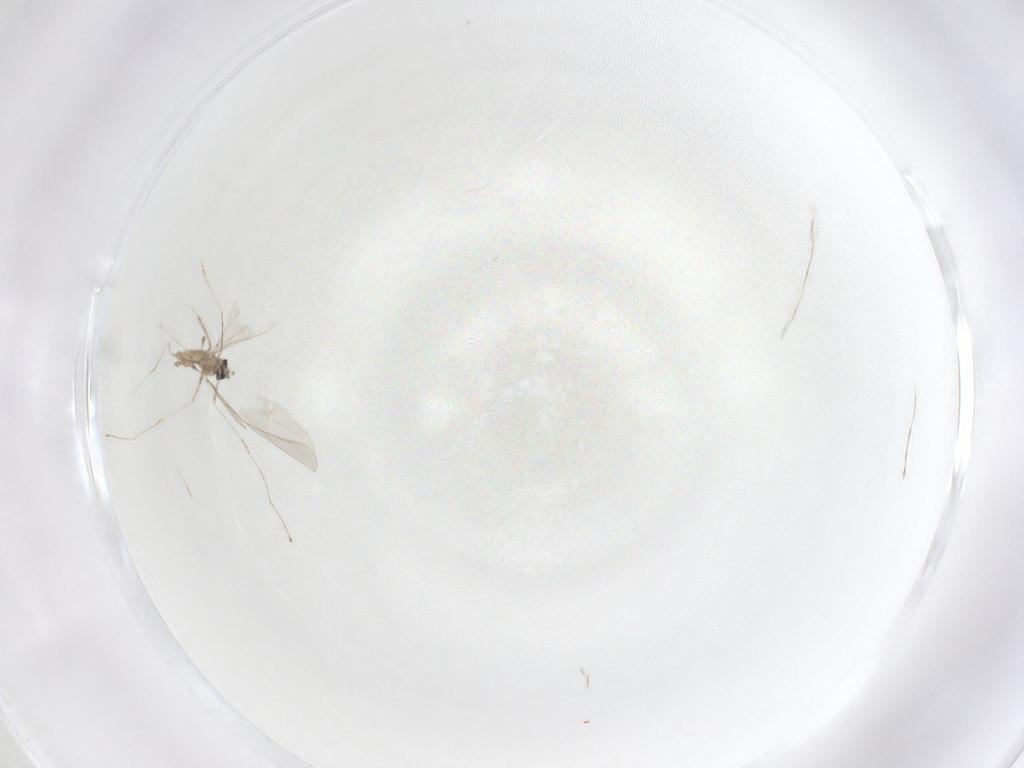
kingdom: Animalia
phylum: Arthropoda
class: Insecta
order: Diptera
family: Cecidomyiidae
